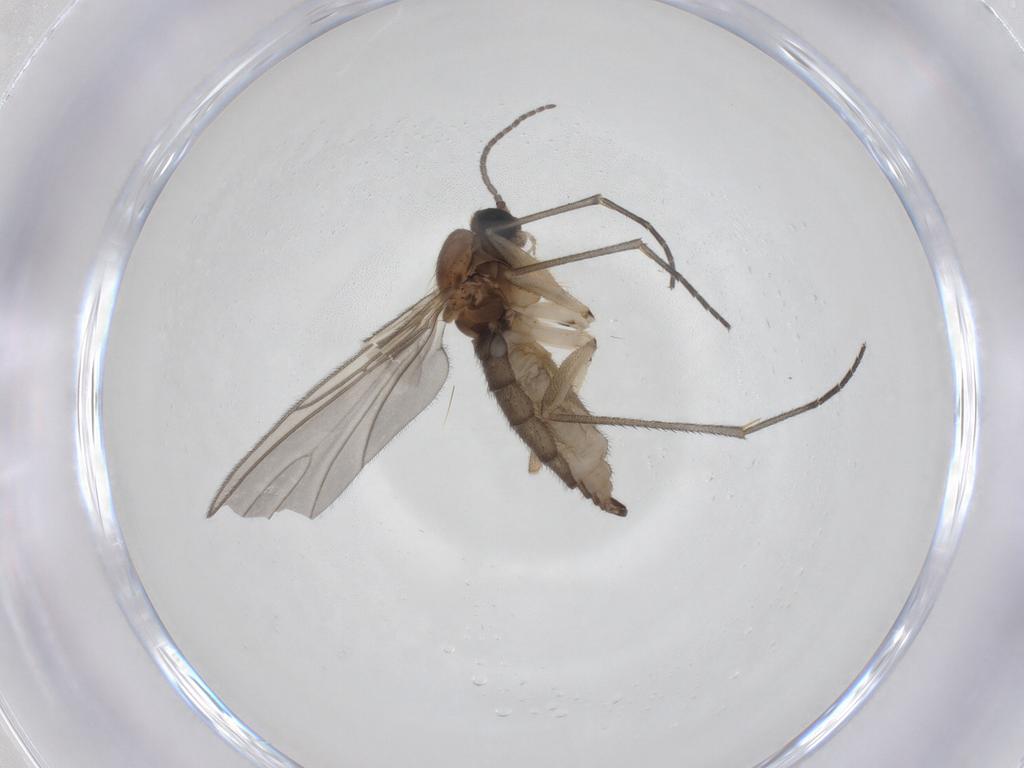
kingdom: Animalia
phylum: Arthropoda
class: Insecta
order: Diptera
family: Sciaridae
